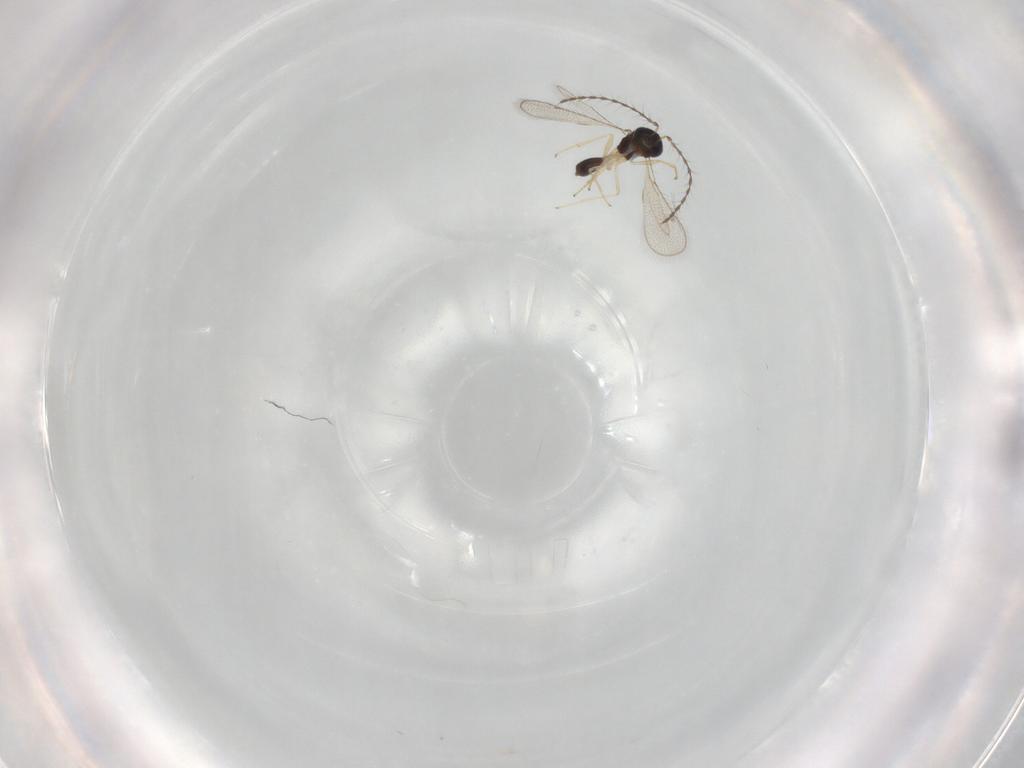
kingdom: Animalia
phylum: Arthropoda
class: Insecta
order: Hymenoptera
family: Diparidae
